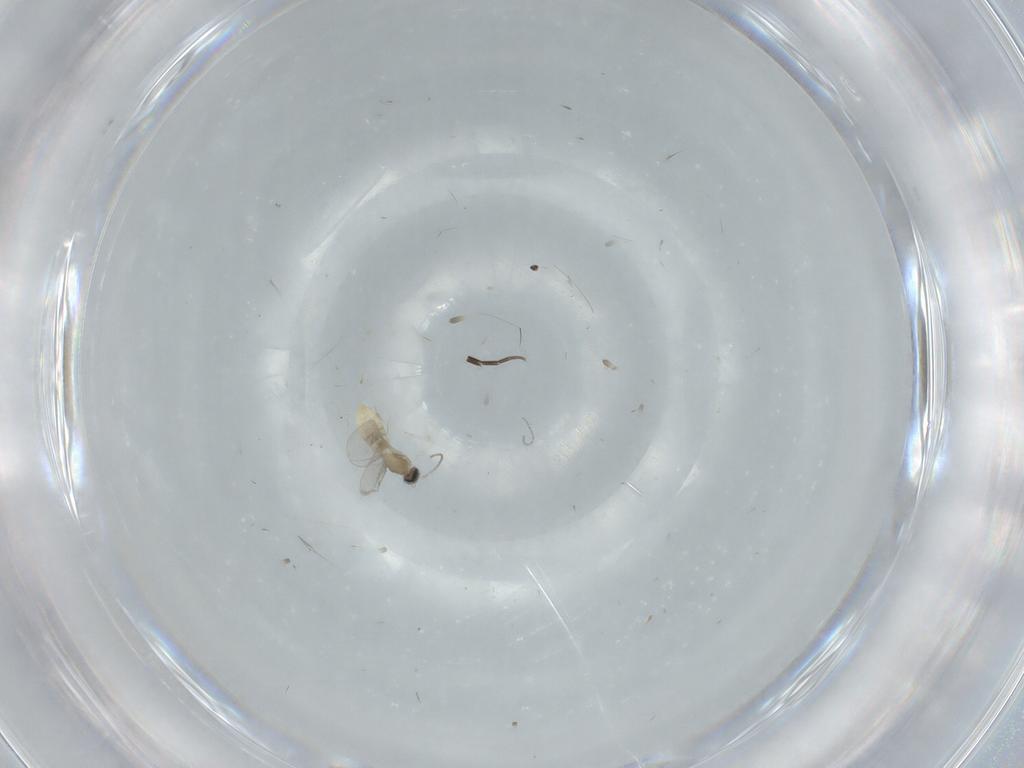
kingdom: Animalia
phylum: Arthropoda
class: Insecta
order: Diptera
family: Cecidomyiidae
